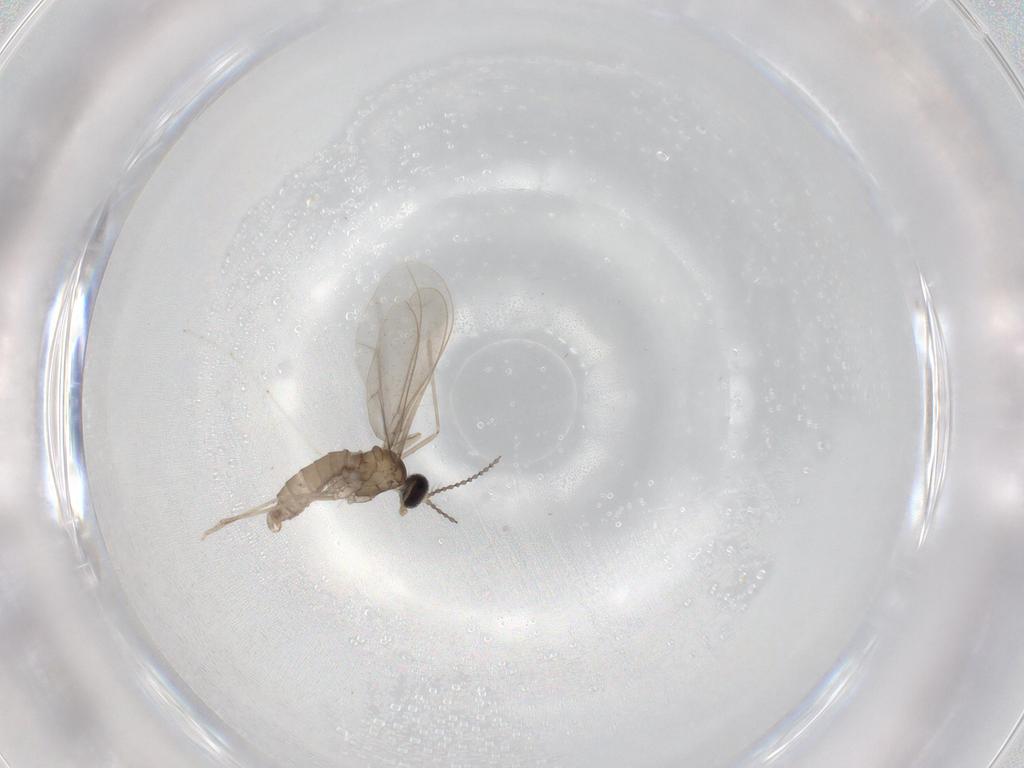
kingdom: Animalia
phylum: Arthropoda
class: Insecta
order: Diptera
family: Cecidomyiidae
